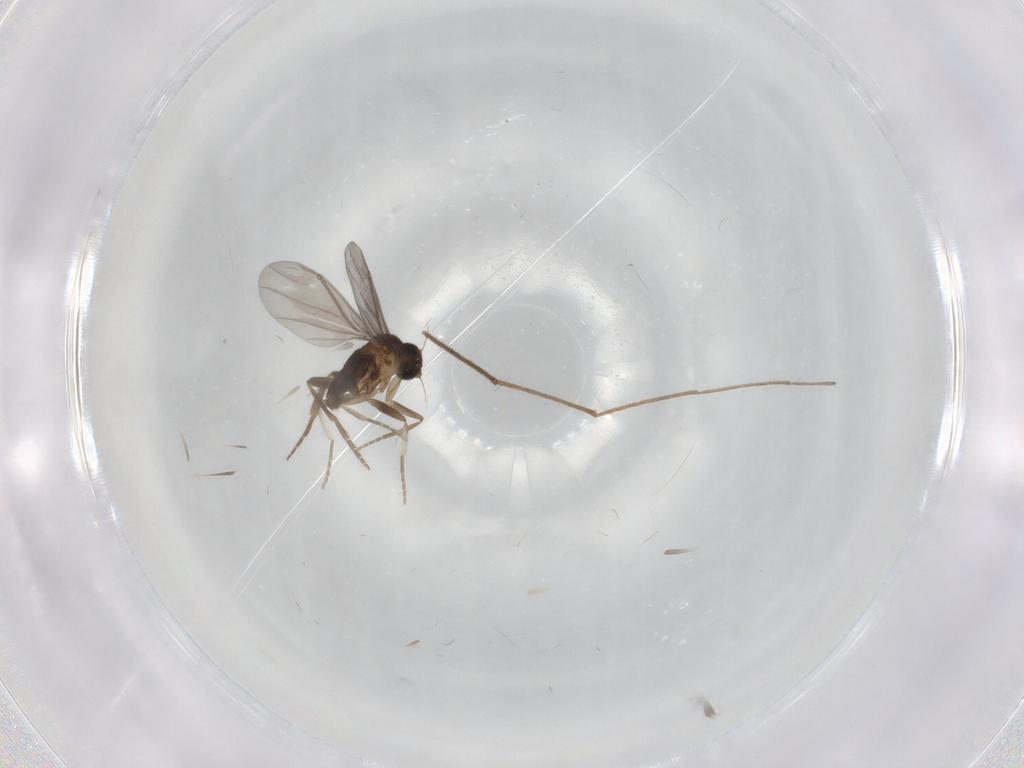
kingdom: Animalia
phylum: Arthropoda
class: Insecta
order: Diptera
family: Chironomidae
